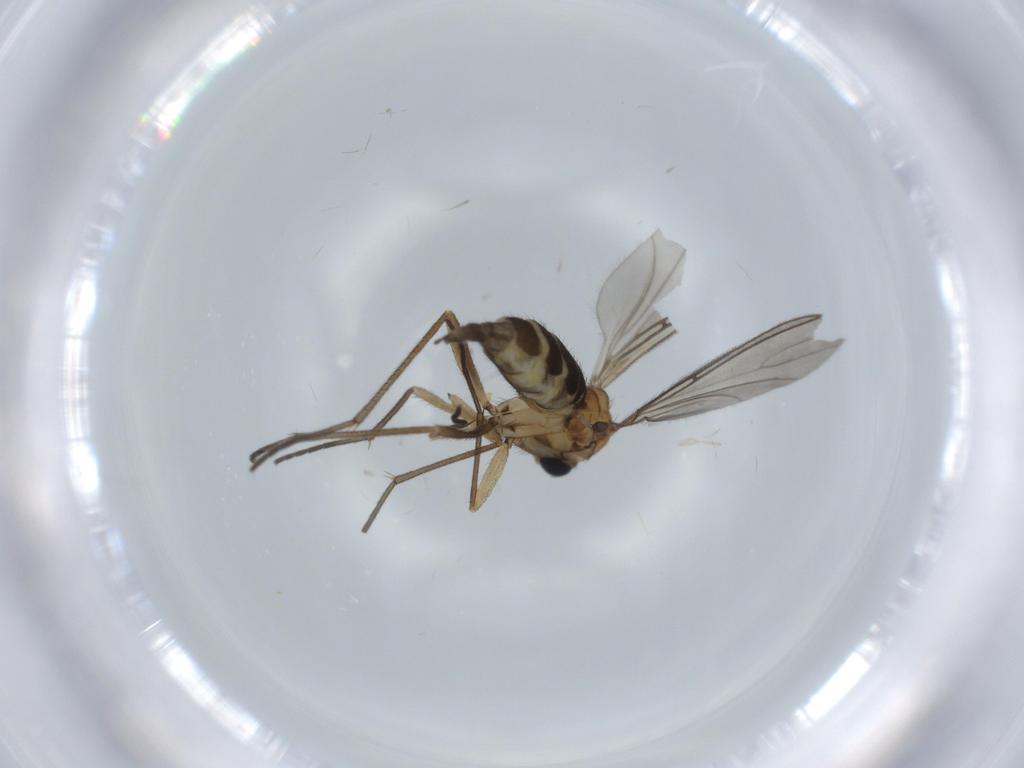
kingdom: Animalia
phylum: Arthropoda
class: Insecta
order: Diptera
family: Sciaridae
